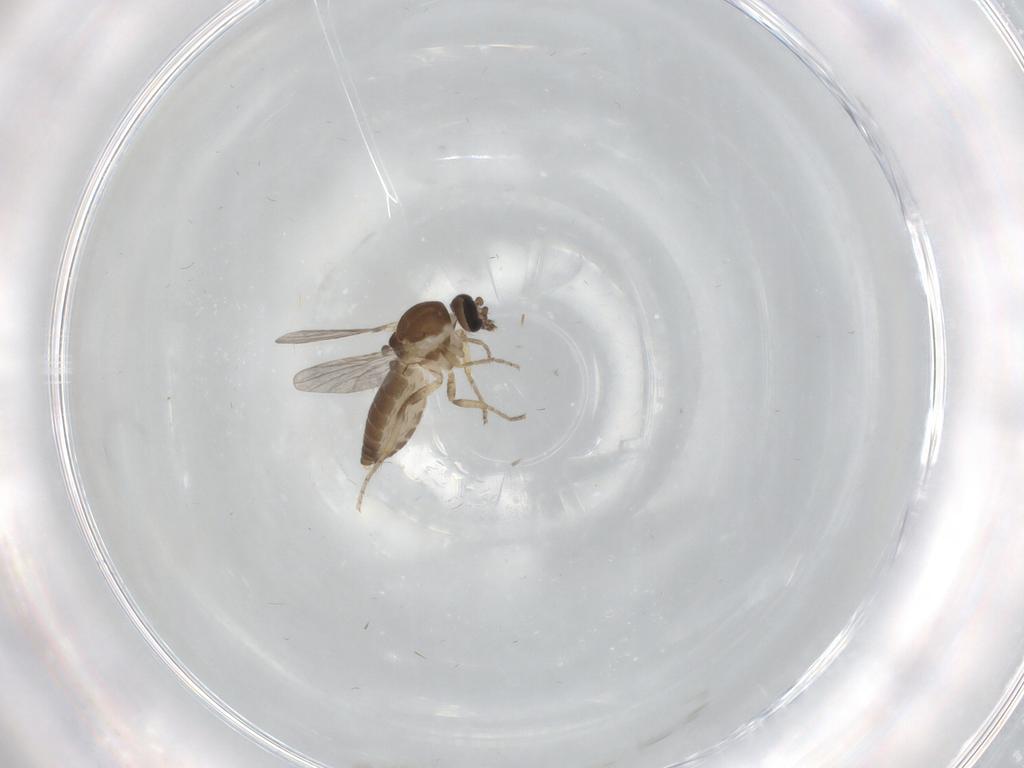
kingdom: Animalia
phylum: Arthropoda
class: Insecta
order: Diptera
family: Ceratopogonidae
